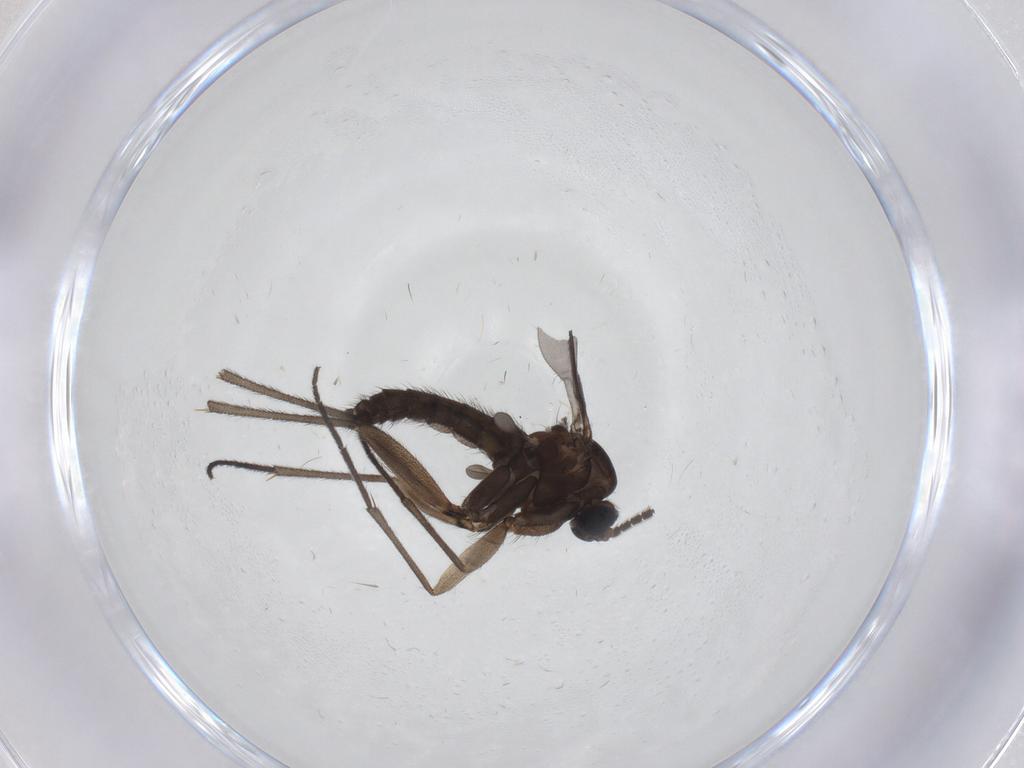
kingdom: Animalia
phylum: Arthropoda
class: Insecta
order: Diptera
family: Sciaridae
